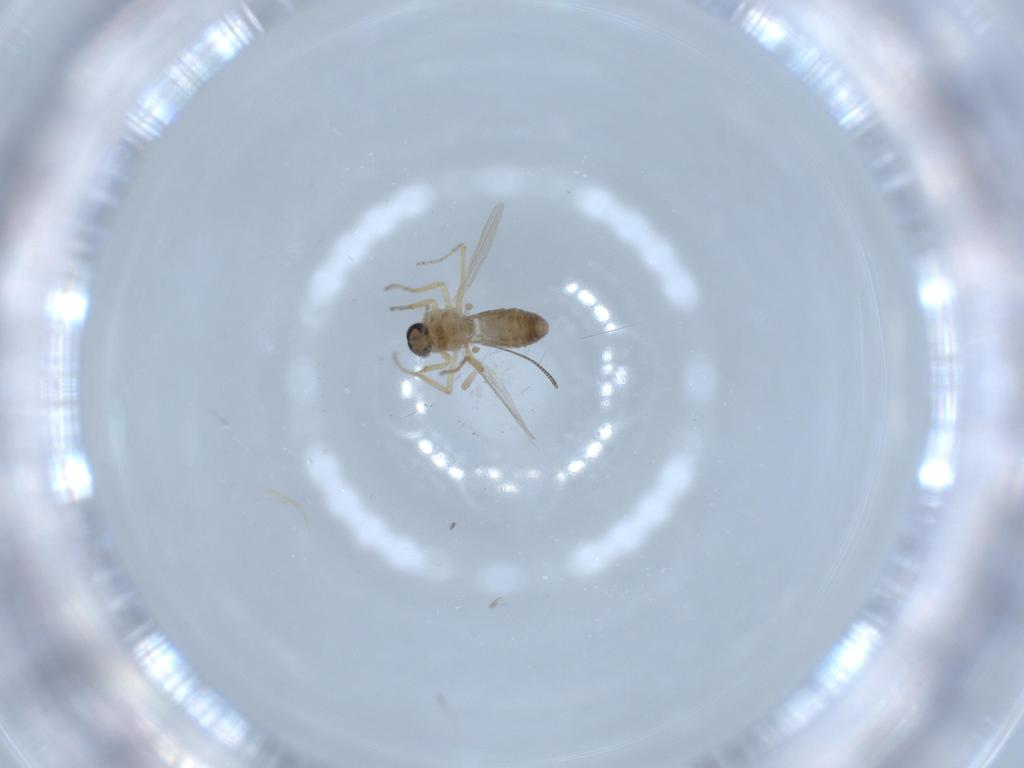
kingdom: Animalia
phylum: Arthropoda
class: Insecta
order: Diptera
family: Ceratopogonidae
